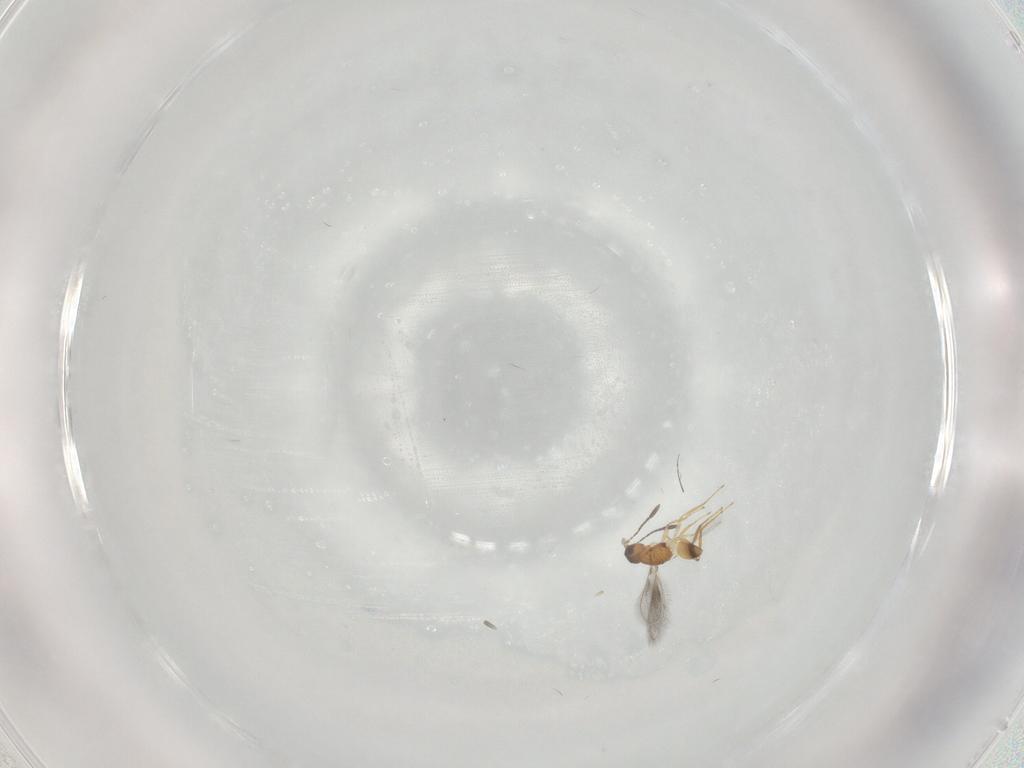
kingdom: Animalia
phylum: Arthropoda
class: Insecta
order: Hymenoptera
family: Mymaridae
